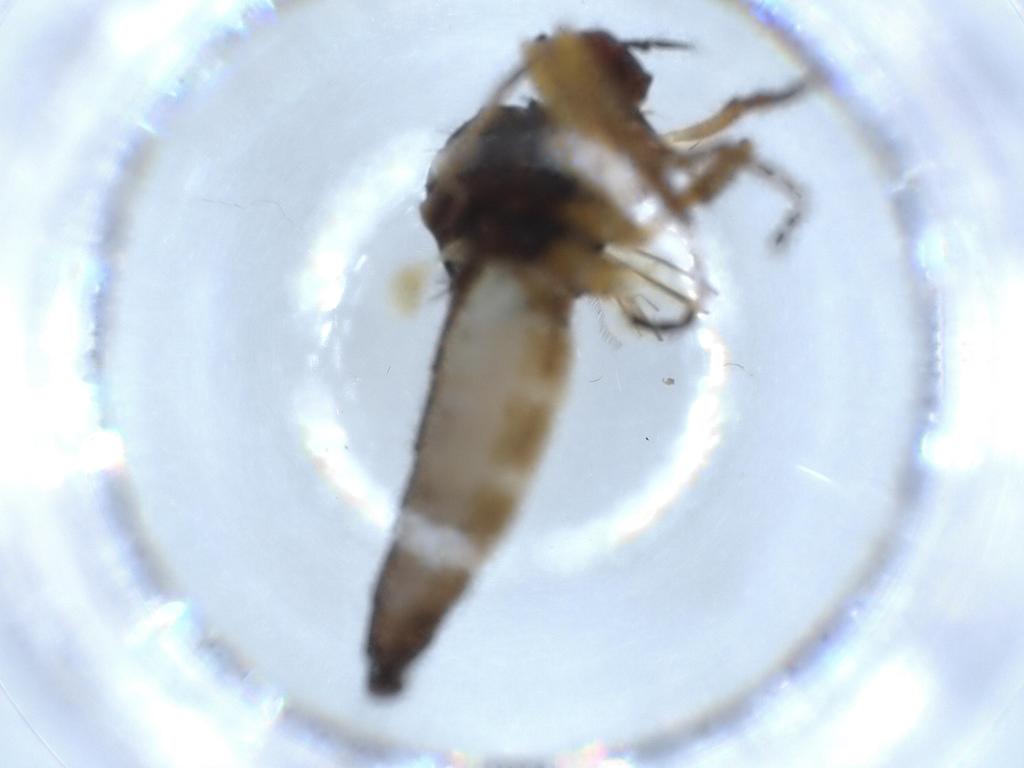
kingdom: Animalia
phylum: Arthropoda
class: Insecta
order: Diptera
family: Empididae
